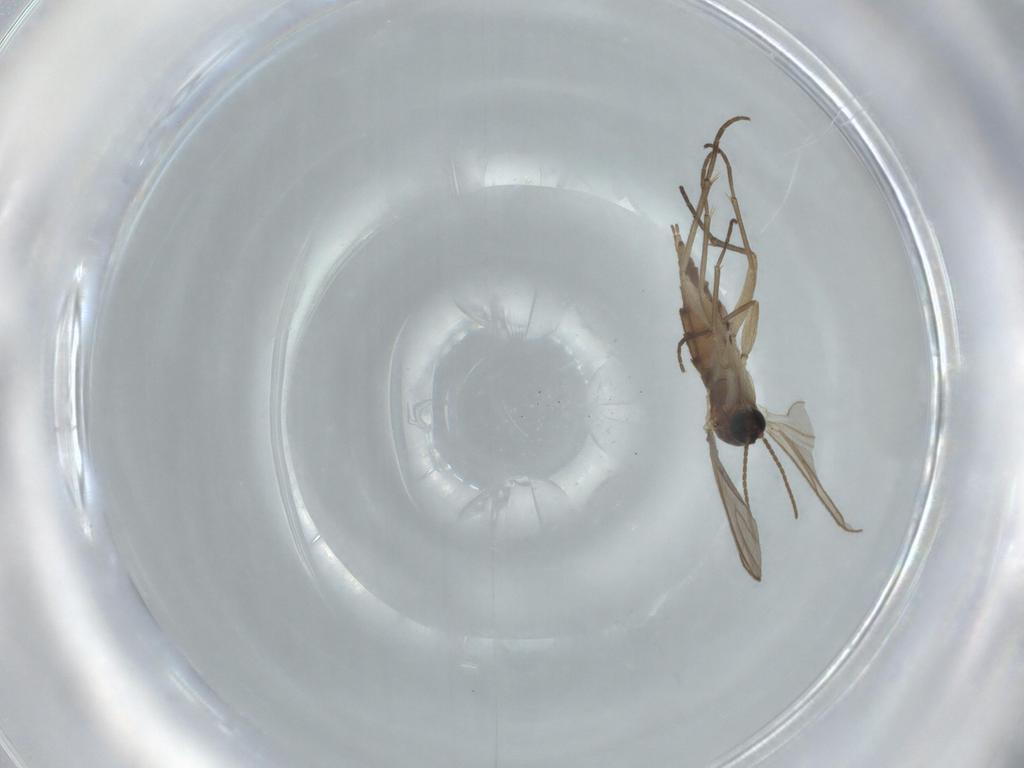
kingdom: Animalia
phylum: Arthropoda
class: Insecta
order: Diptera
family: Sciaridae
